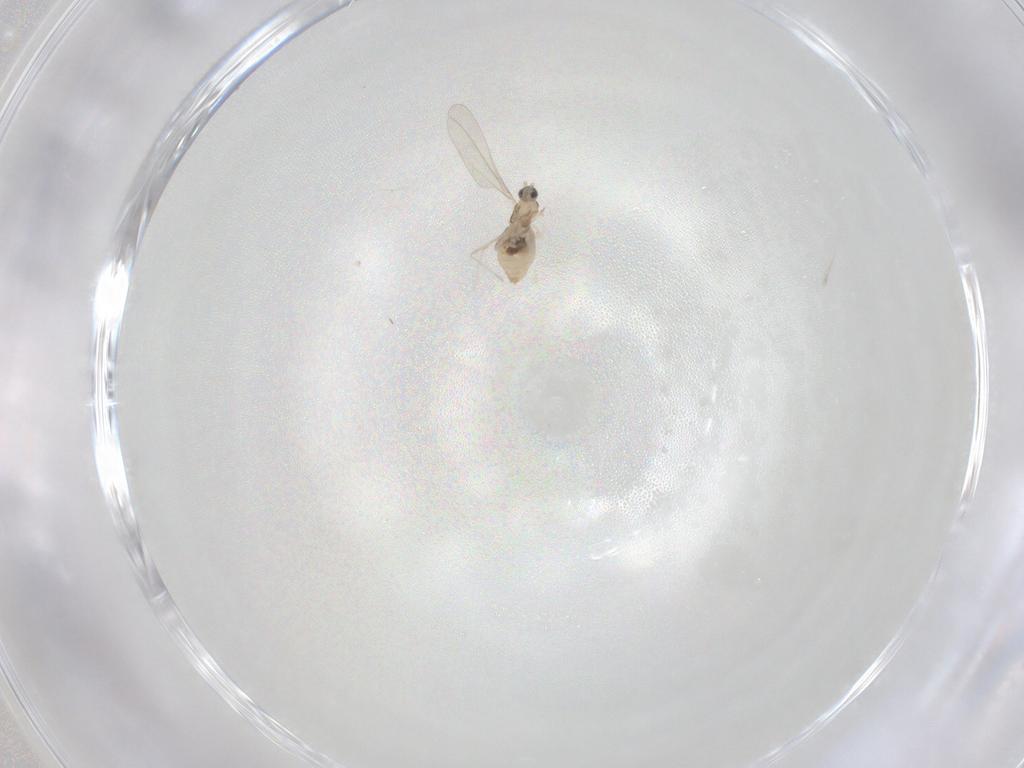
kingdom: Animalia
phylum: Arthropoda
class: Insecta
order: Diptera
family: Cecidomyiidae
